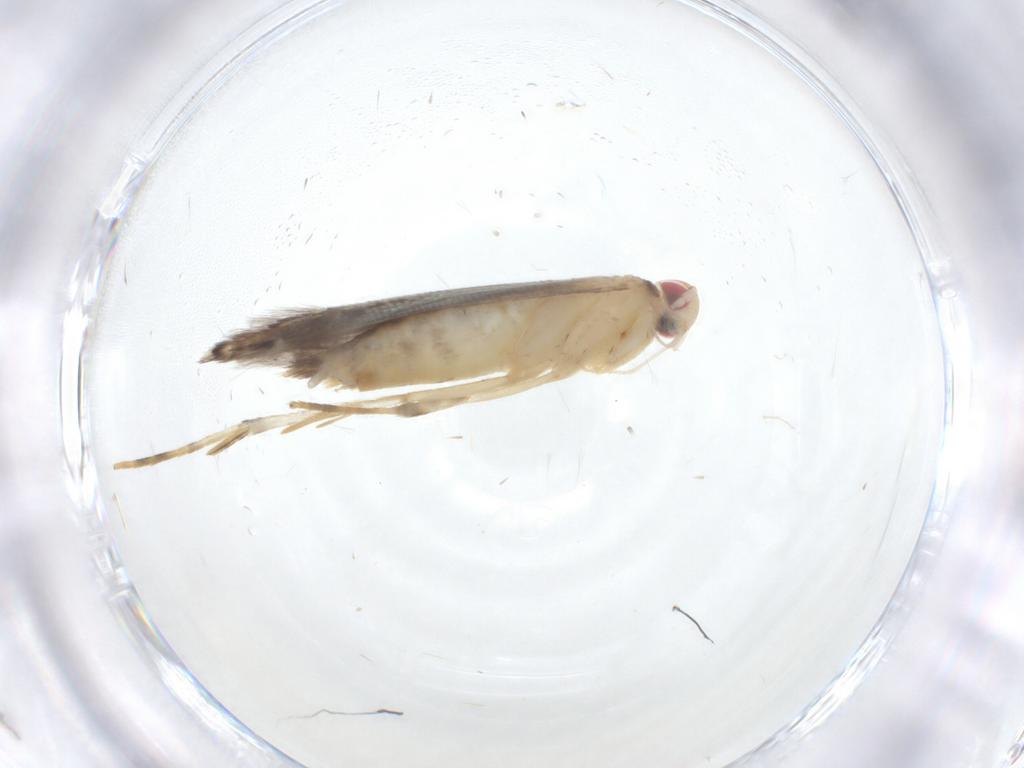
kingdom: Animalia
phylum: Arthropoda
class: Insecta
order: Lepidoptera
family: Cosmopterigidae
